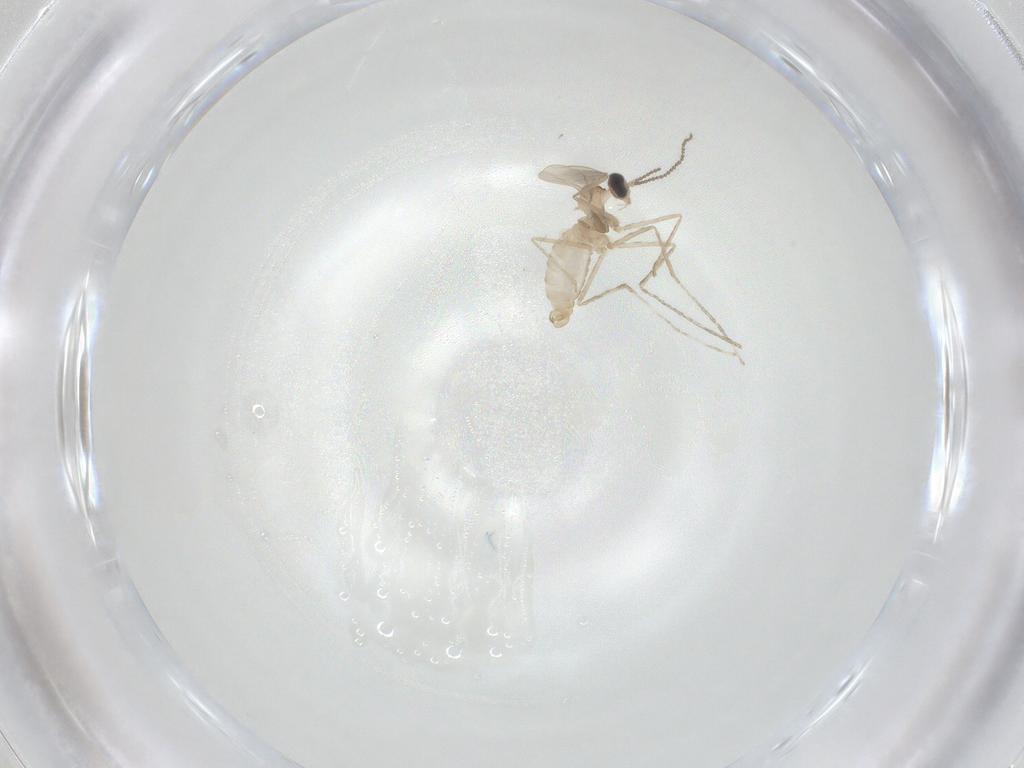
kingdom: Animalia
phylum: Arthropoda
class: Insecta
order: Diptera
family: Cecidomyiidae
